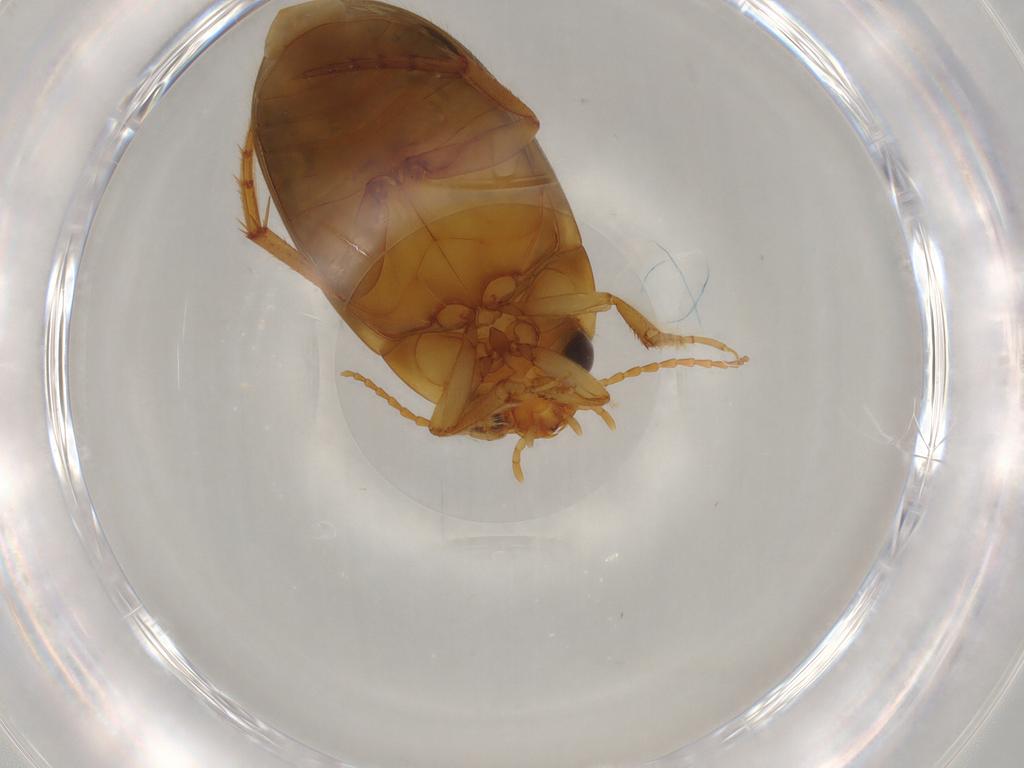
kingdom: Animalia
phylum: Arthropoda
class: Insecta
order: Coleoptera
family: Dytiscidae
